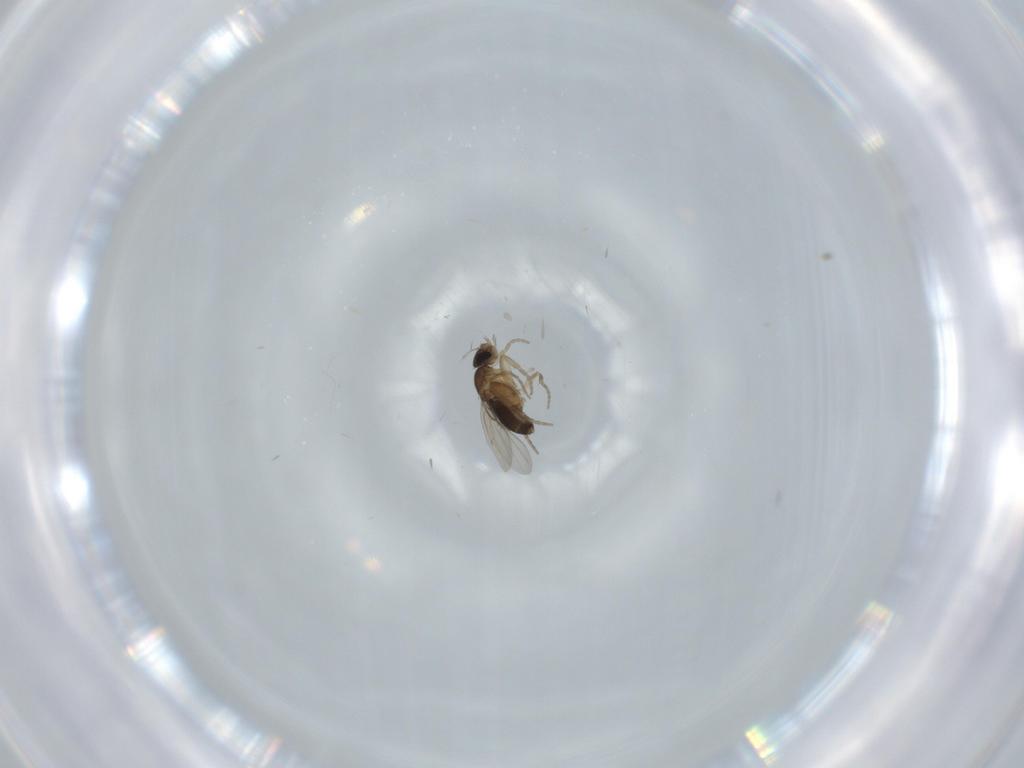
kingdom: Animalia
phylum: Arthropoda
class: Insecta
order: Diptera
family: Phoridae
